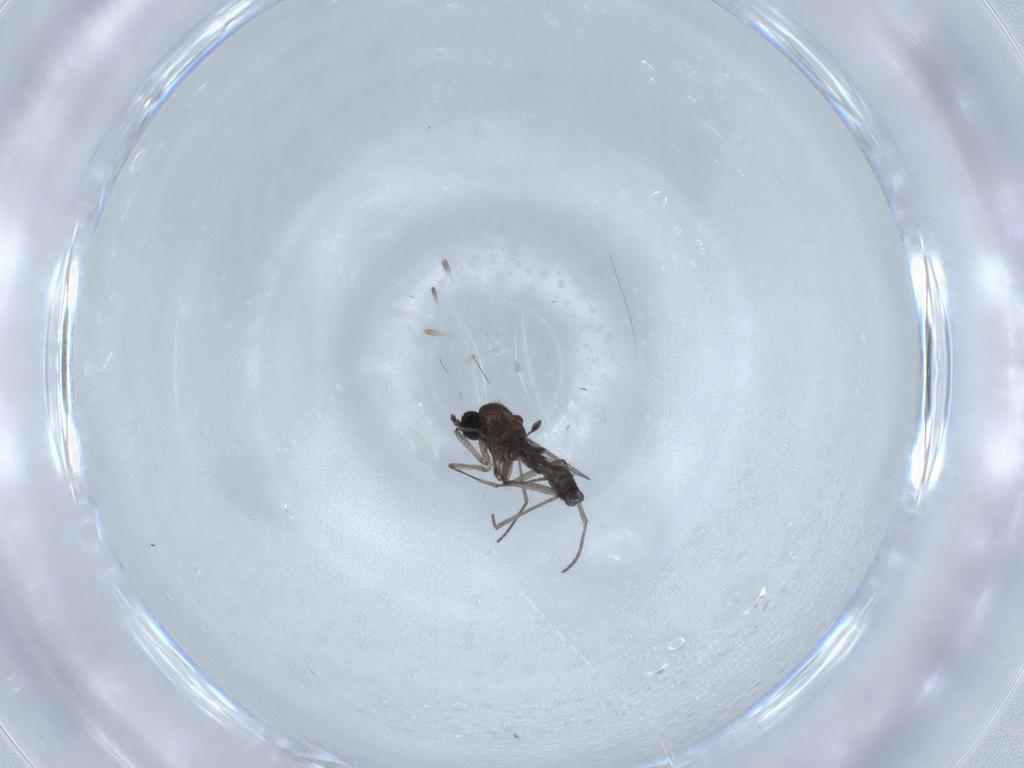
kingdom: Animalia
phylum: Arthropoda
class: Insecta
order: Diptera
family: Chironomidae
